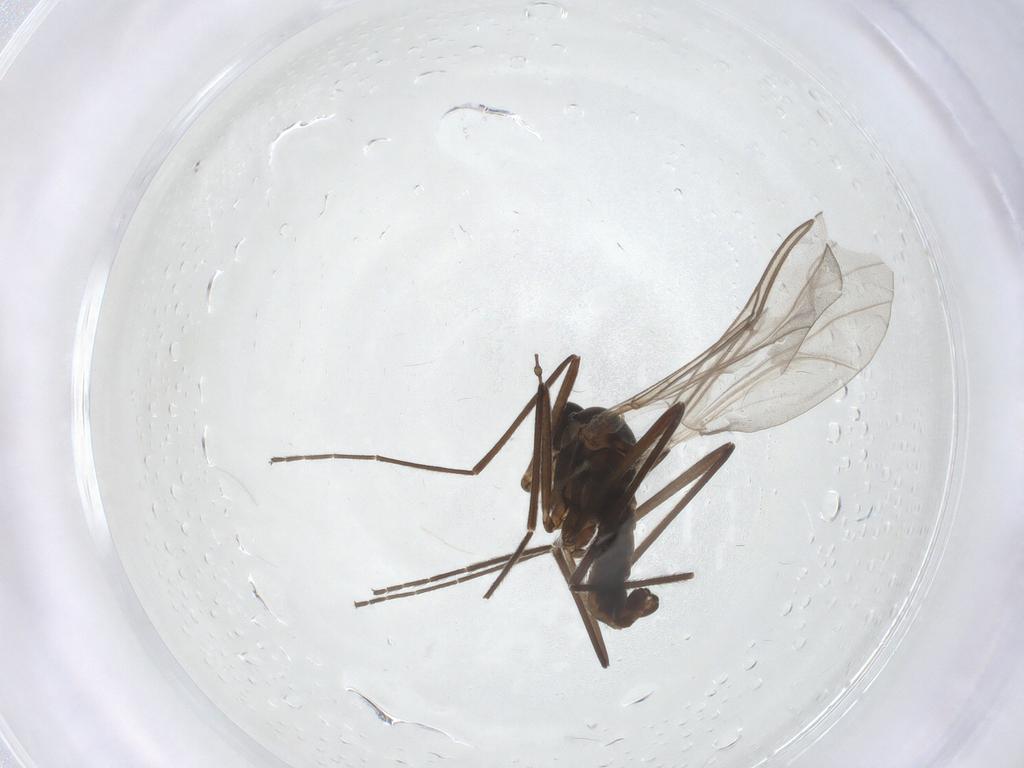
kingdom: Animalia
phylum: Arthropoda
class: Insecta
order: Diptera
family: Cecidomyiidae
